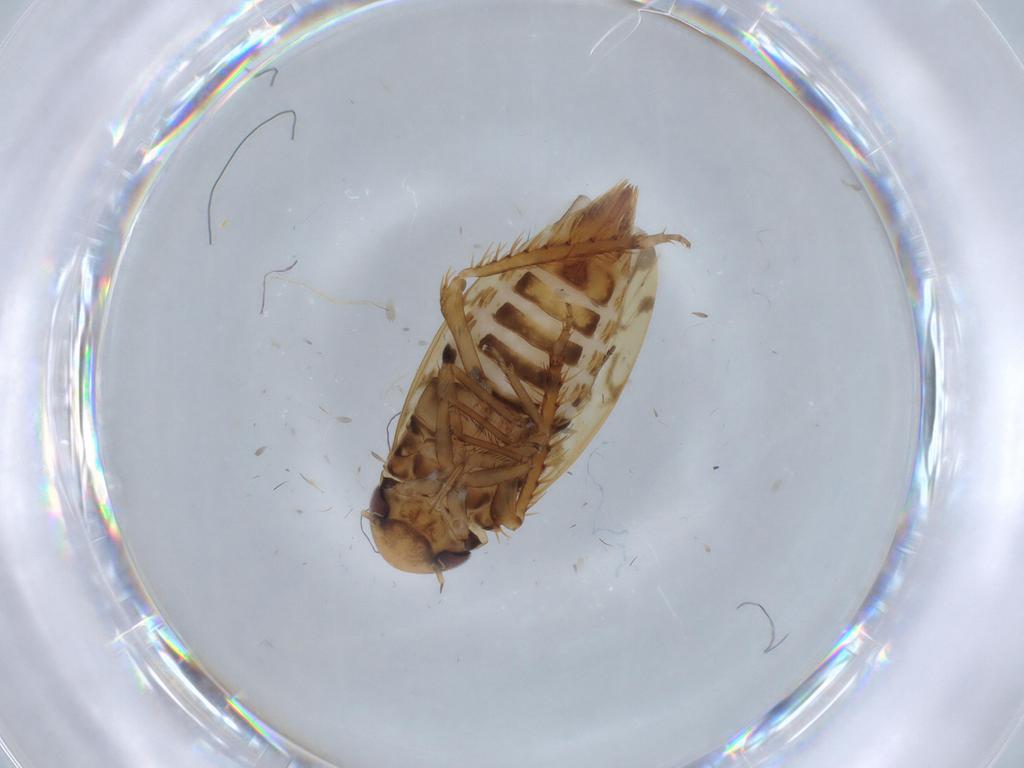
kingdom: Animalia
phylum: Arthropoda
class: Insecta
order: Hemiptera
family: Cicadellidae
